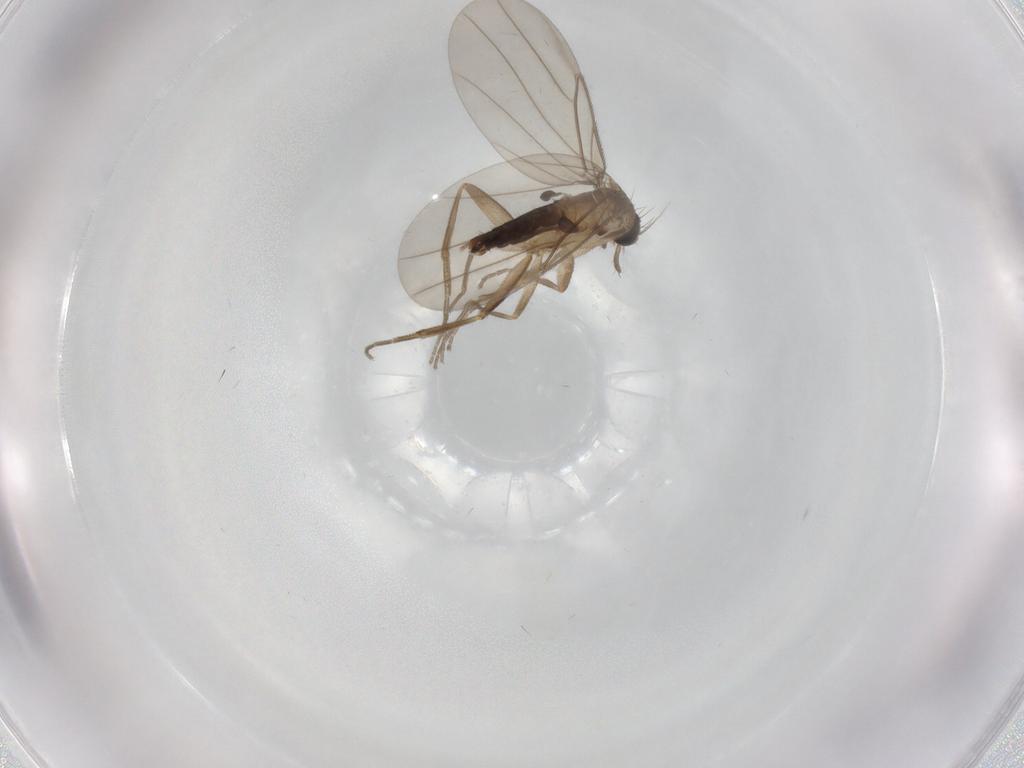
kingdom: Animalia
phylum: Arthropoda
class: Insecta
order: Diptera
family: Phoridae
